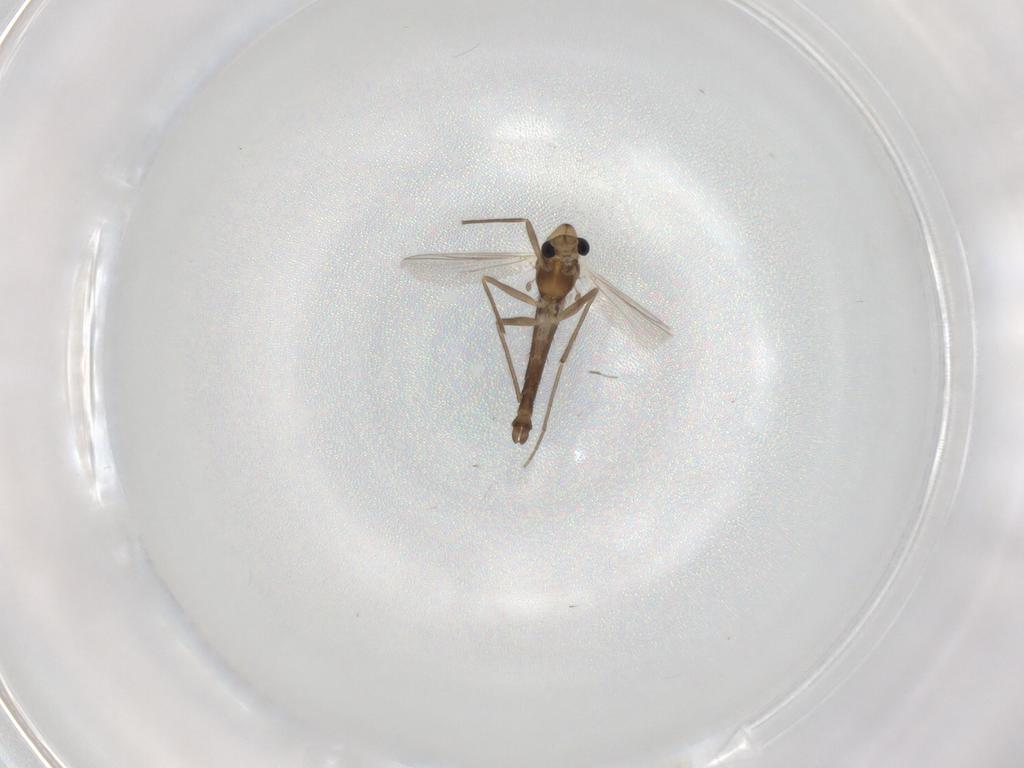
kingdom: Animalia
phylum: Arthropoda
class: Insecta
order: Diptera
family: Chironomidae
